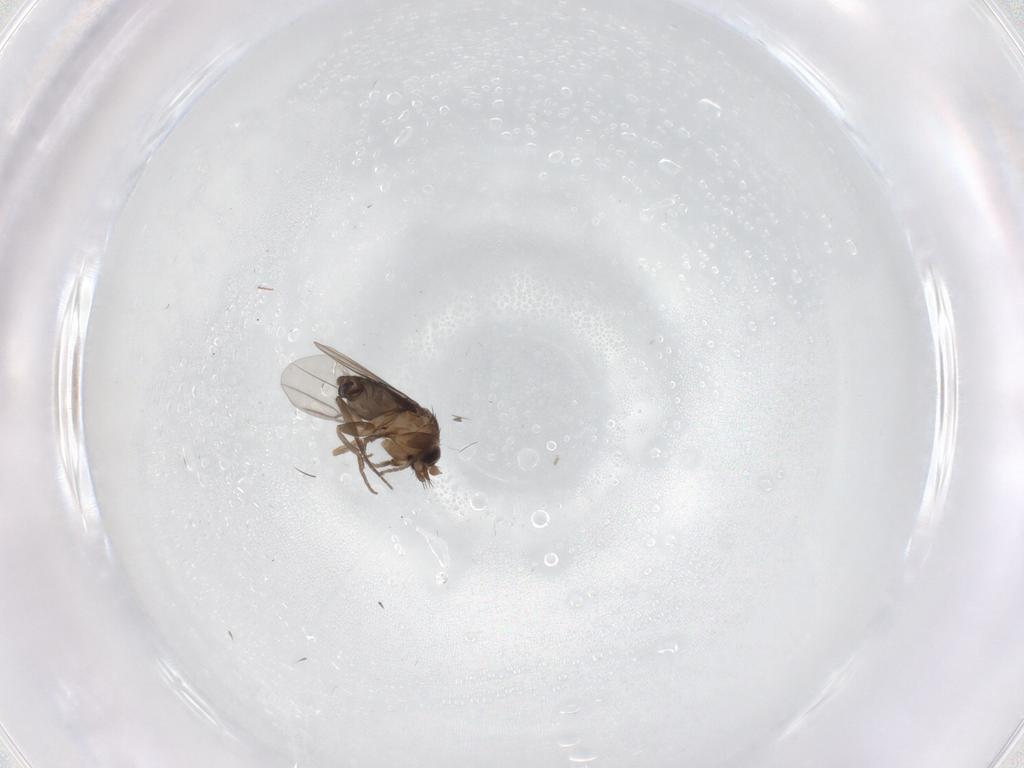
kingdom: Animalia
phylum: Arthropoda
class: Insecta
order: Diptera
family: Phoridae
